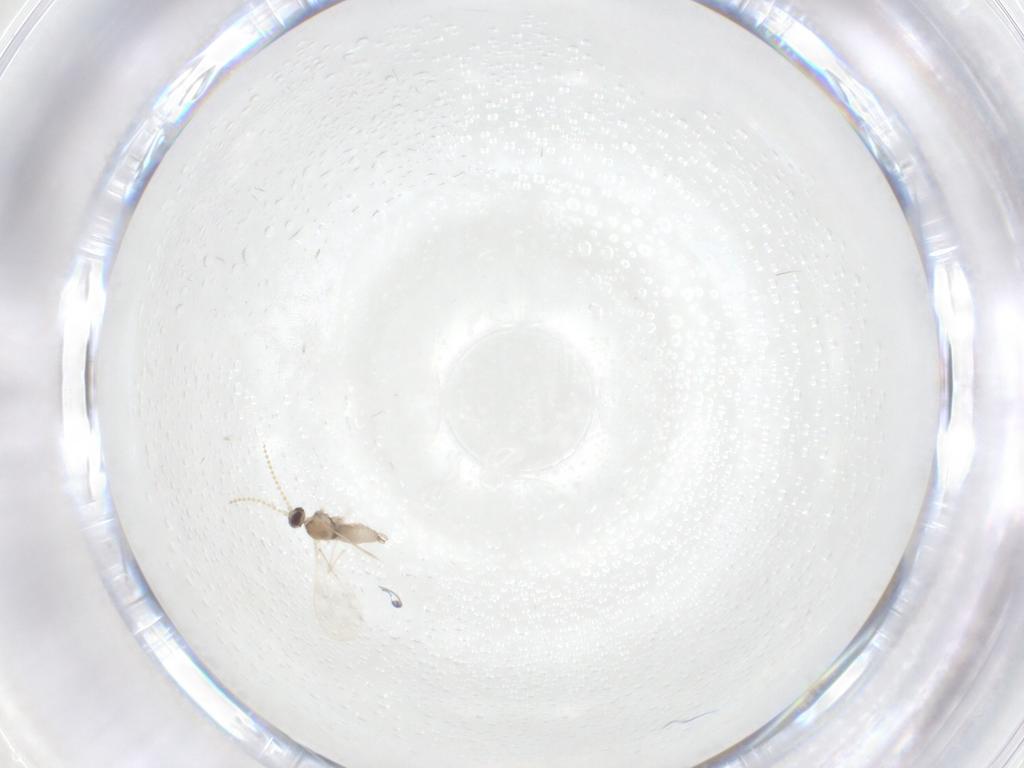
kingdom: Animalia
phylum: Arthropoda
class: Insecta
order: Diptera
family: Cecidomyiidae
